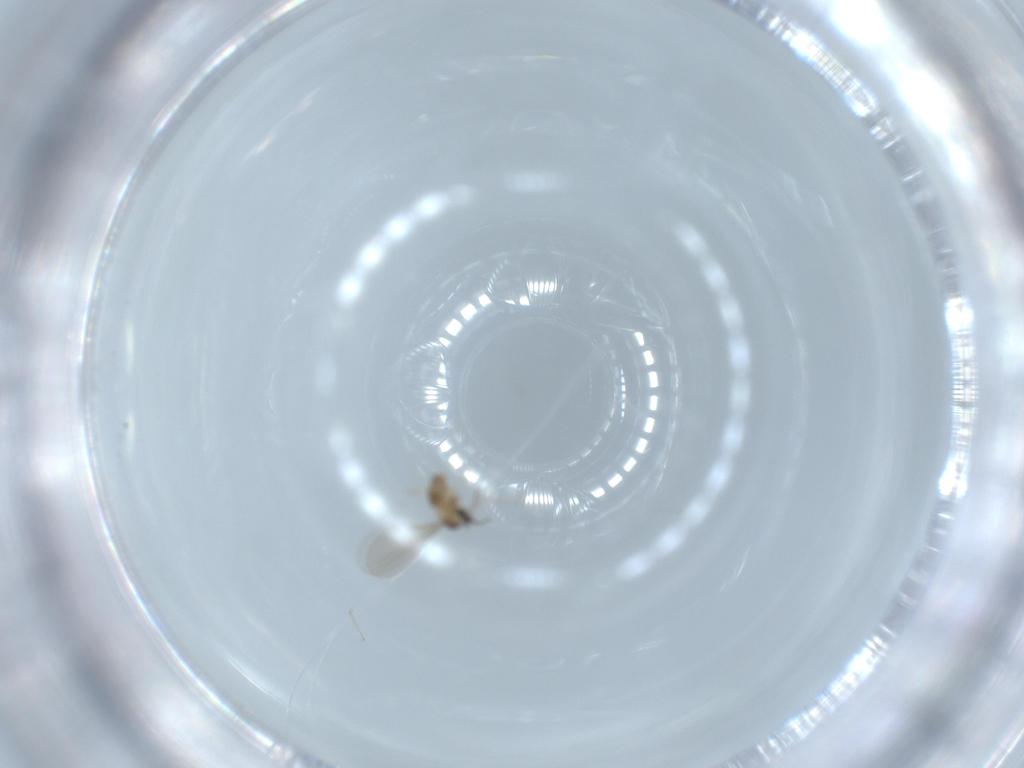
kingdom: Animalia
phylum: Arthropoda
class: Insecta
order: Diptera
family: Cecidomyiidae
